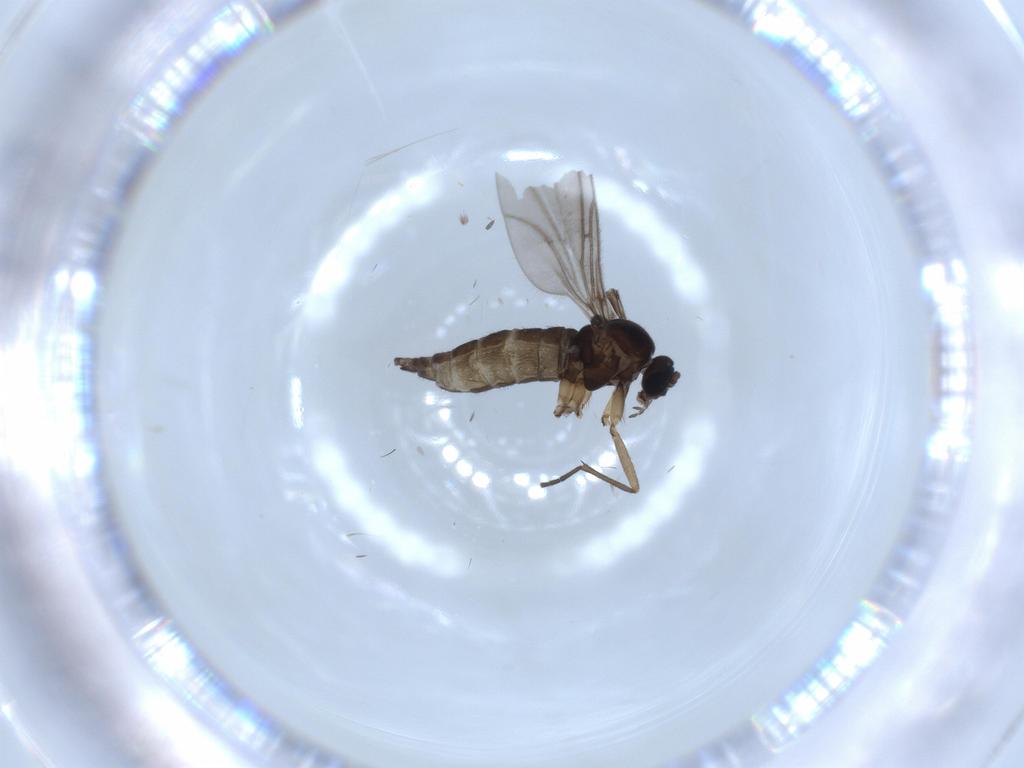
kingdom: Animalia
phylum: Arthropoda
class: Insecta
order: Diptera
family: Sciaridae
